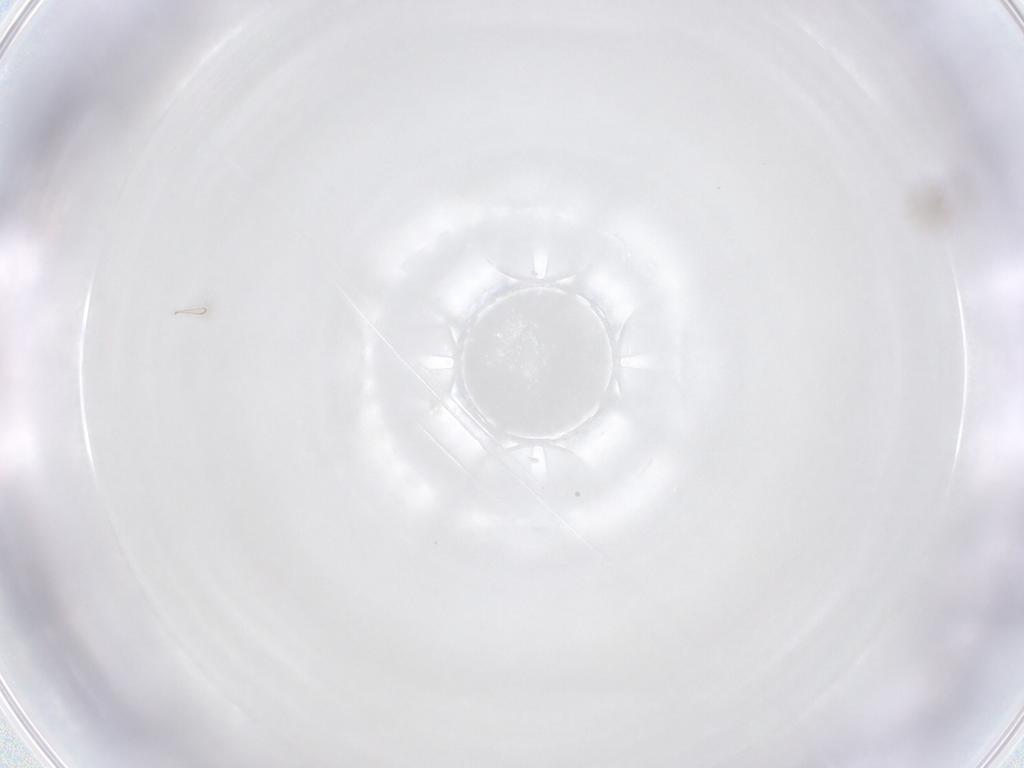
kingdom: Animalia
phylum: Arthropoda
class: Insecta
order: Hymenoptera
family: Mymaridae
